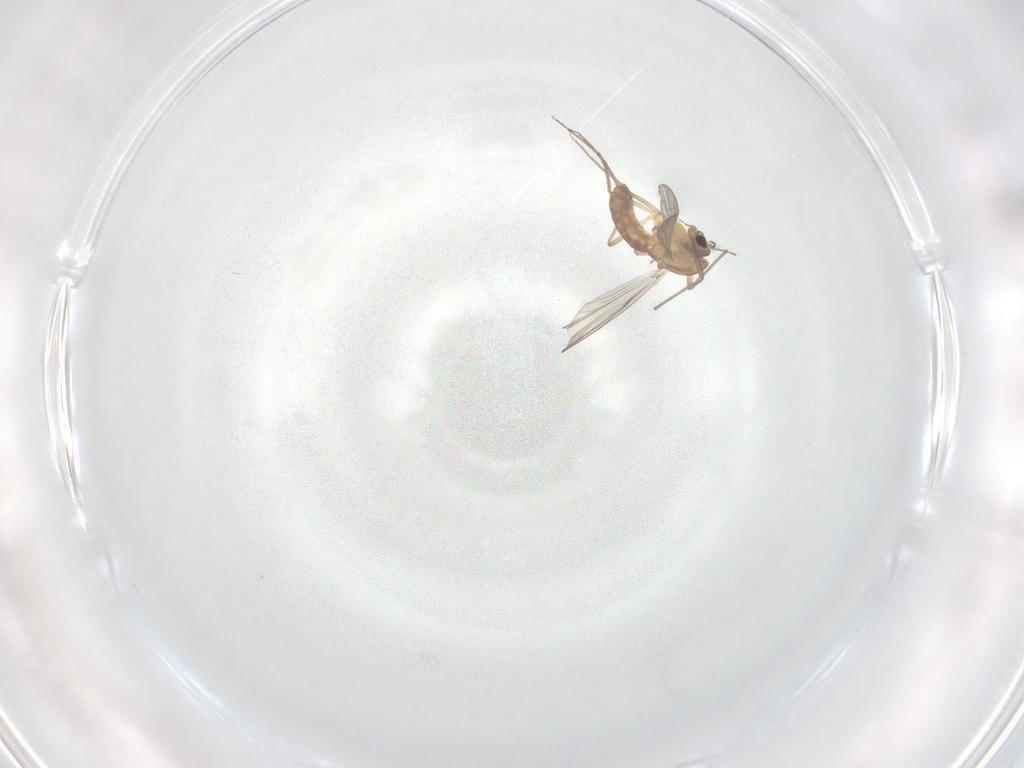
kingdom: Animalia
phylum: Arthropoda
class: Insecta
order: Diptera
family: Chironomidae
